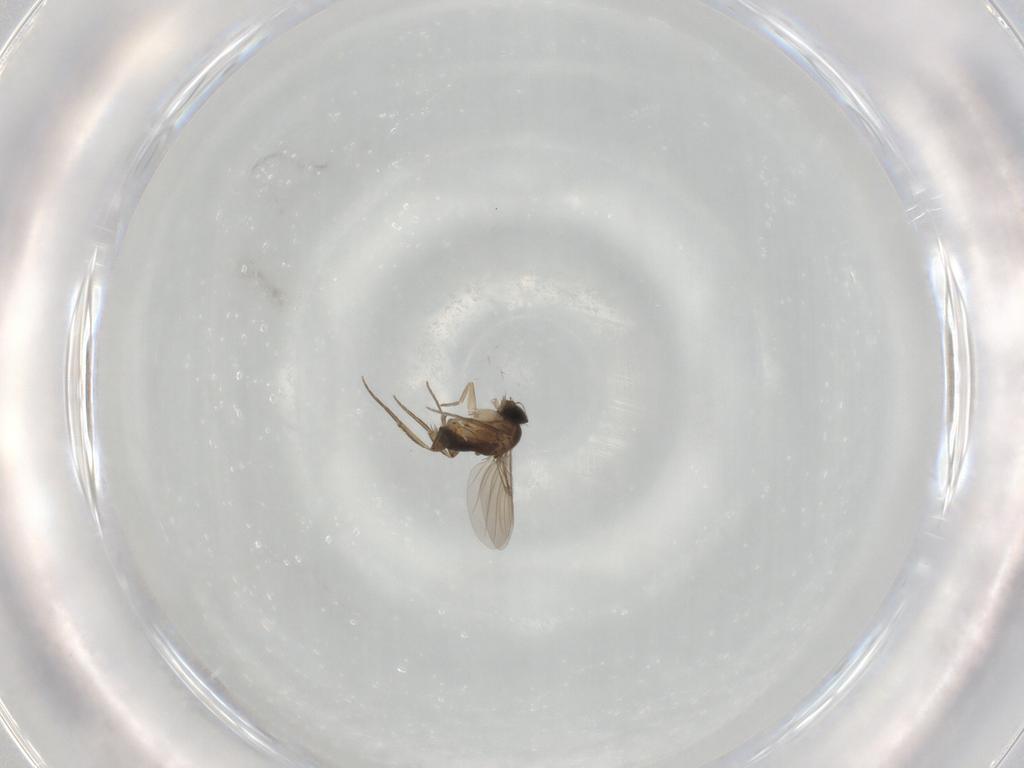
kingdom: Animalia
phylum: Arthropoda
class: Insecta
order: Diptera
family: Phoridae
